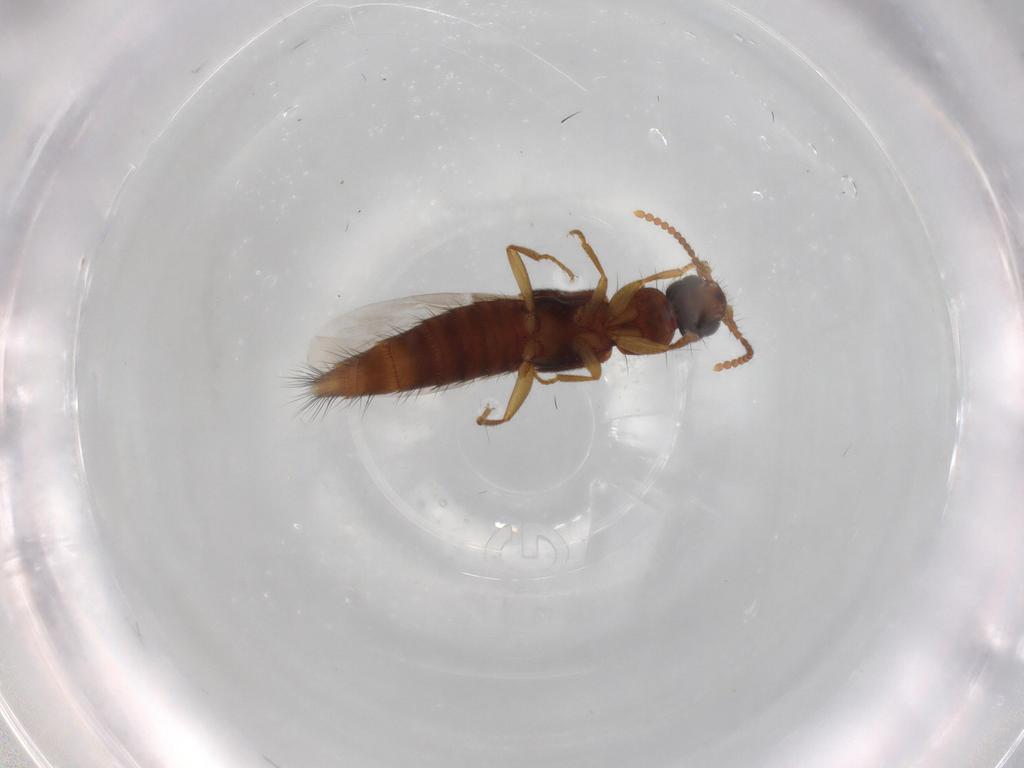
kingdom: Animalia
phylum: Arthropoda
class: Insecta
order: Coleoptera
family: Staphylinidae
